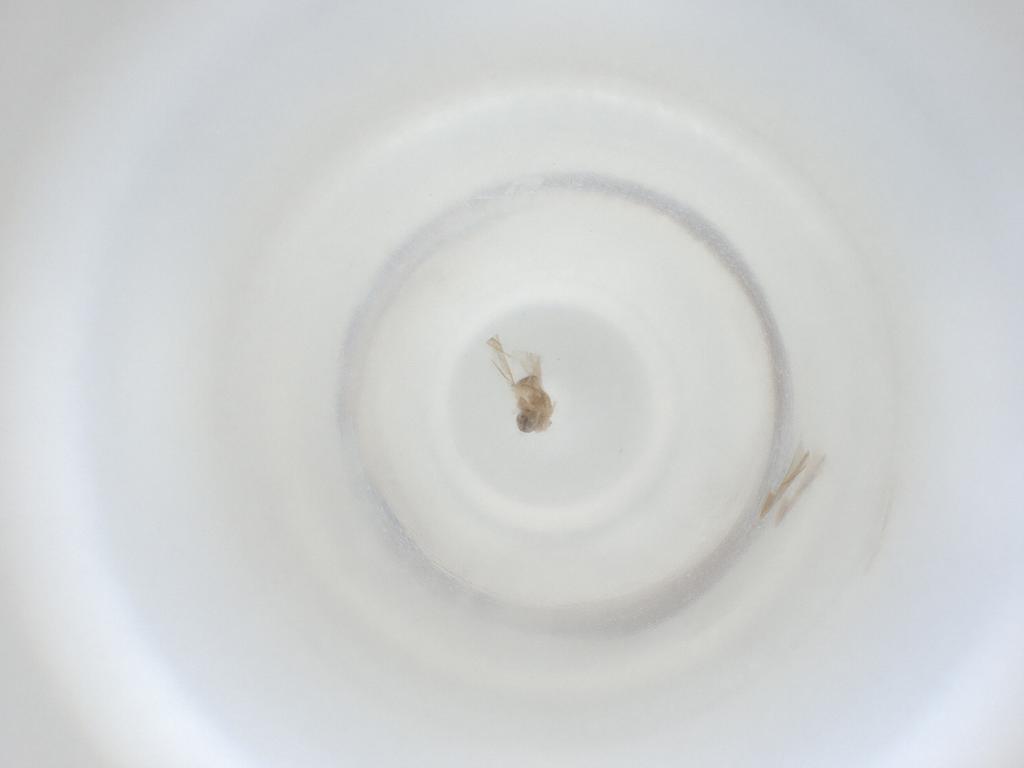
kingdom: Animalia
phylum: Arthropoda
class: Insecta
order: Diptera
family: Cecidomyiidae
